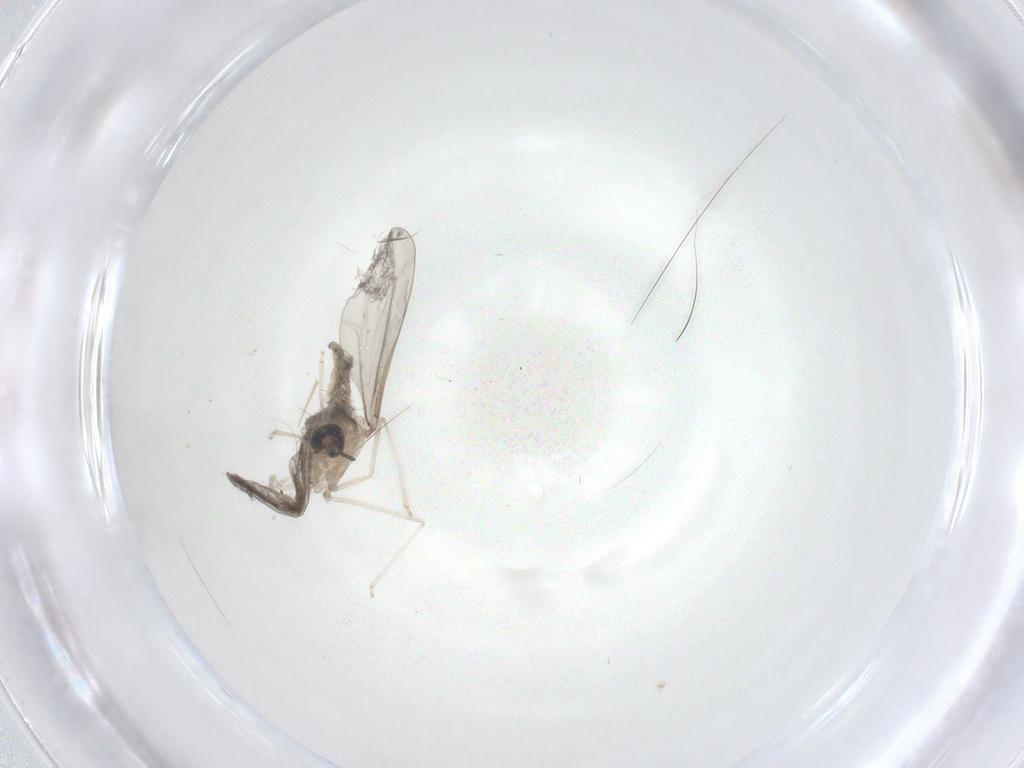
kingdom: Animalia
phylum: Arthropoda
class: Insecta
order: Diptera
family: Cecidomyiidae
